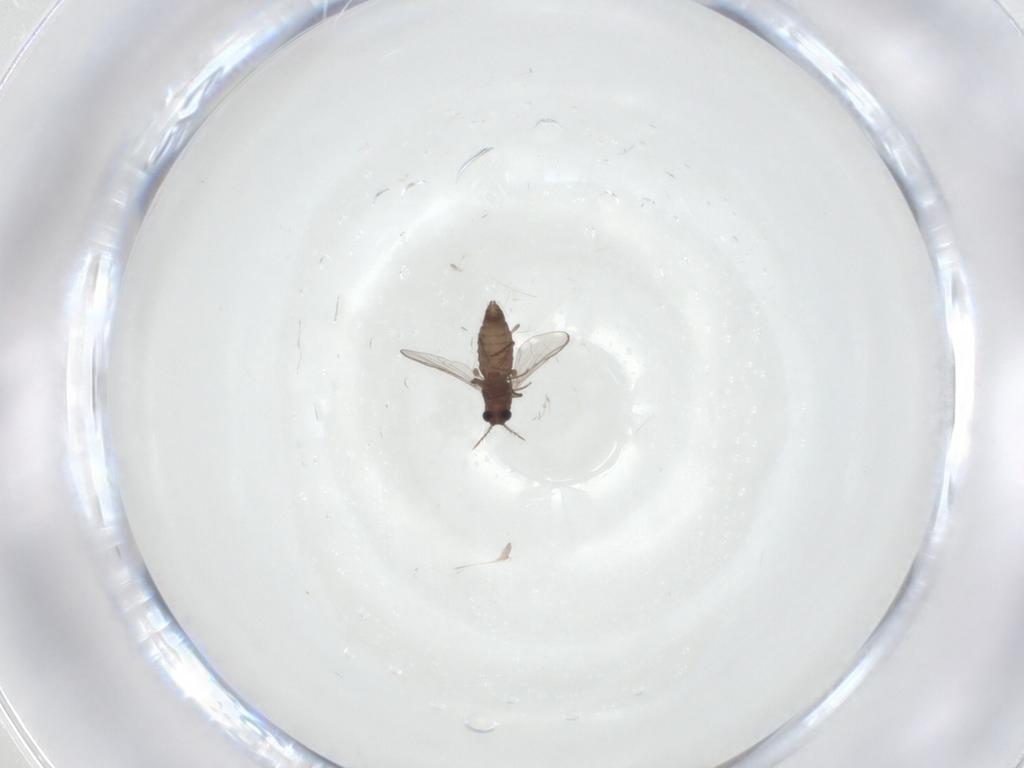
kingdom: Animalia
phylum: Arthropoda
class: Insecta
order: Diptera
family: Chironomidae
